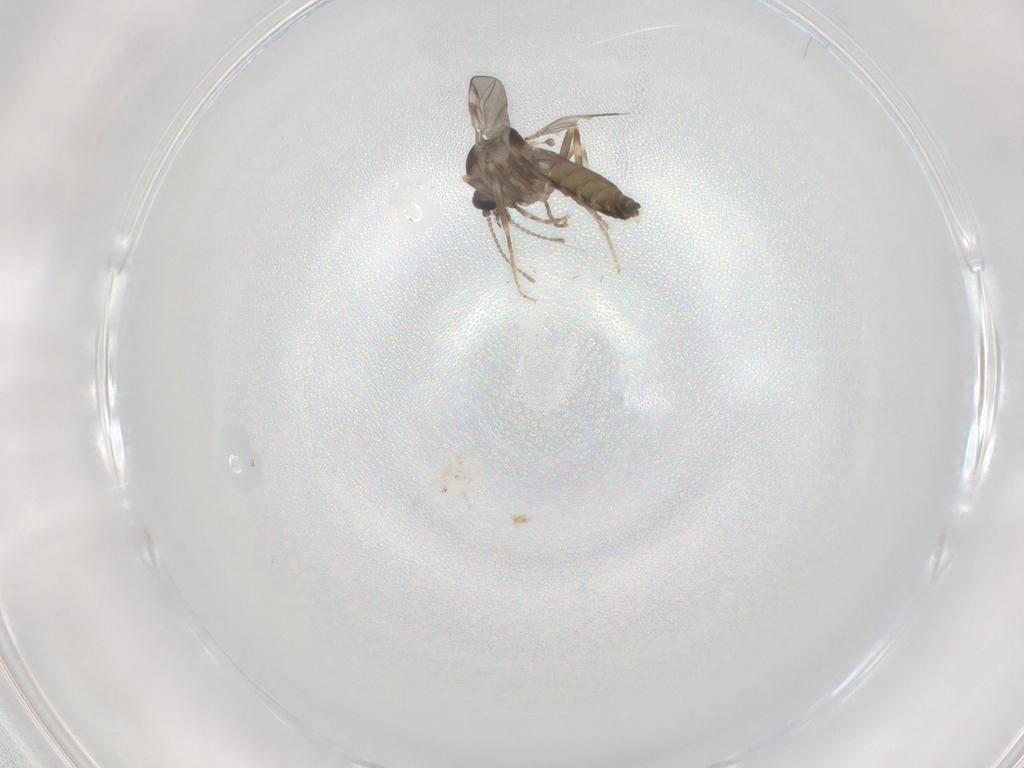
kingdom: Animalia
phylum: Arthropoda
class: Insecta
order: Diptera
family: Ceratopogonidae
